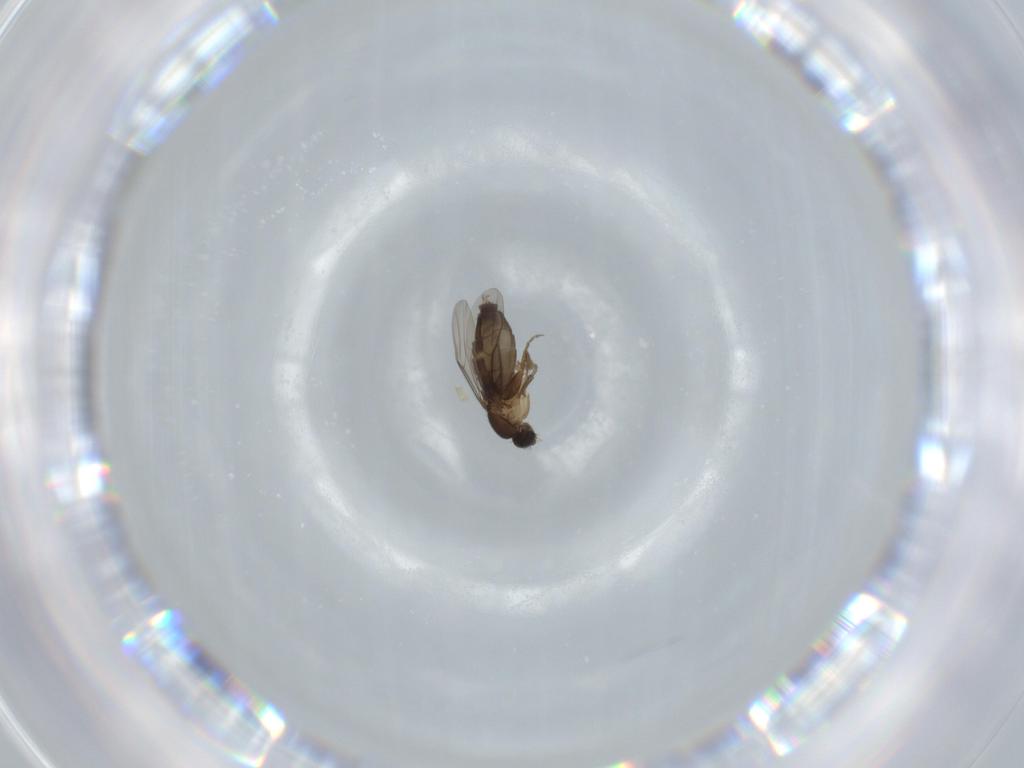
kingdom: Animalia
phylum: Arthropoda
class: Insecta
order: Diptera
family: Phoridae
